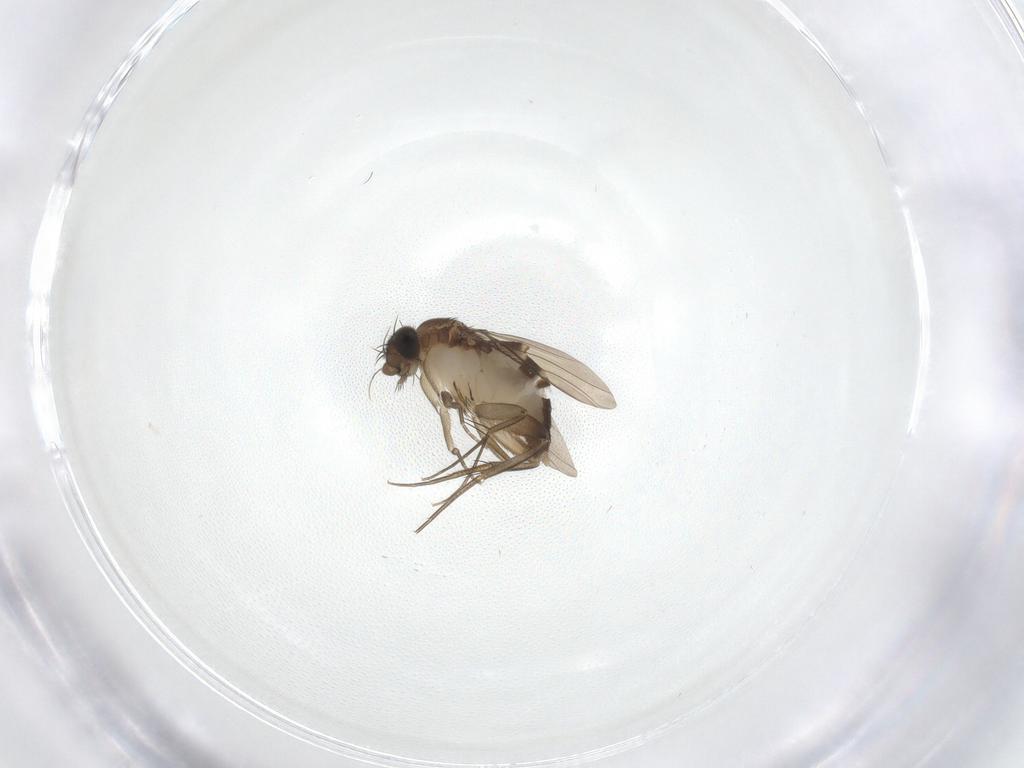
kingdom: Animalia
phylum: Arthropoda
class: Insecta
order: Diptera
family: Phoridae
